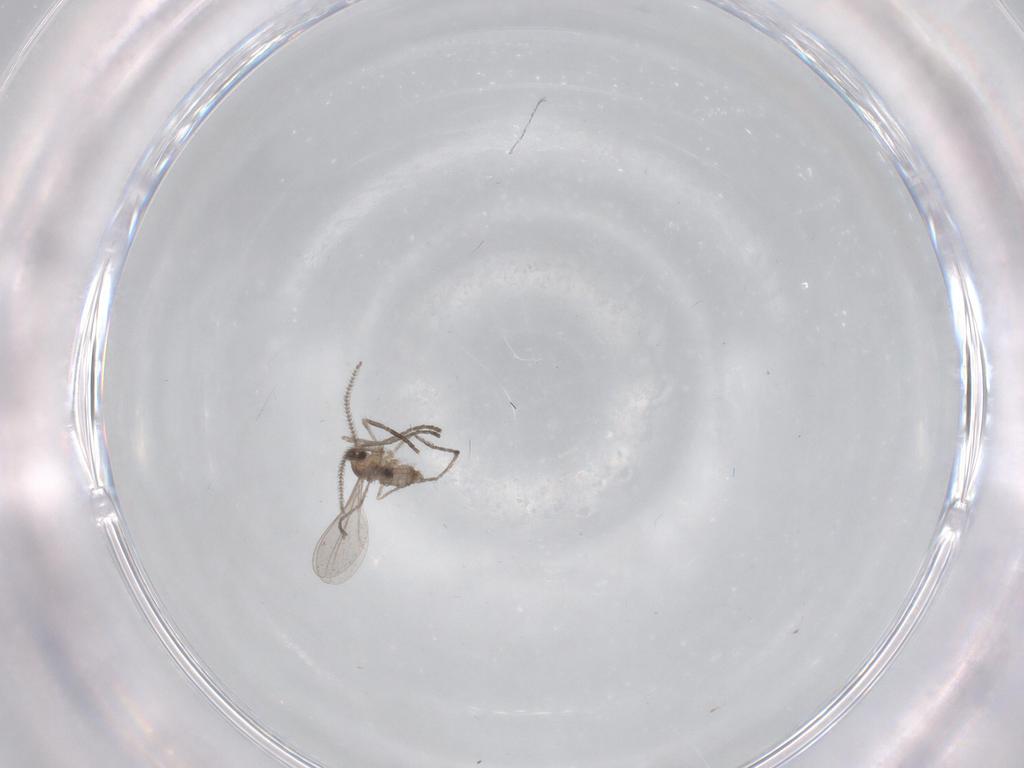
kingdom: Animalia
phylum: Arthropoda
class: Insecta
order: Diptera
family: Cecidomyiidae
